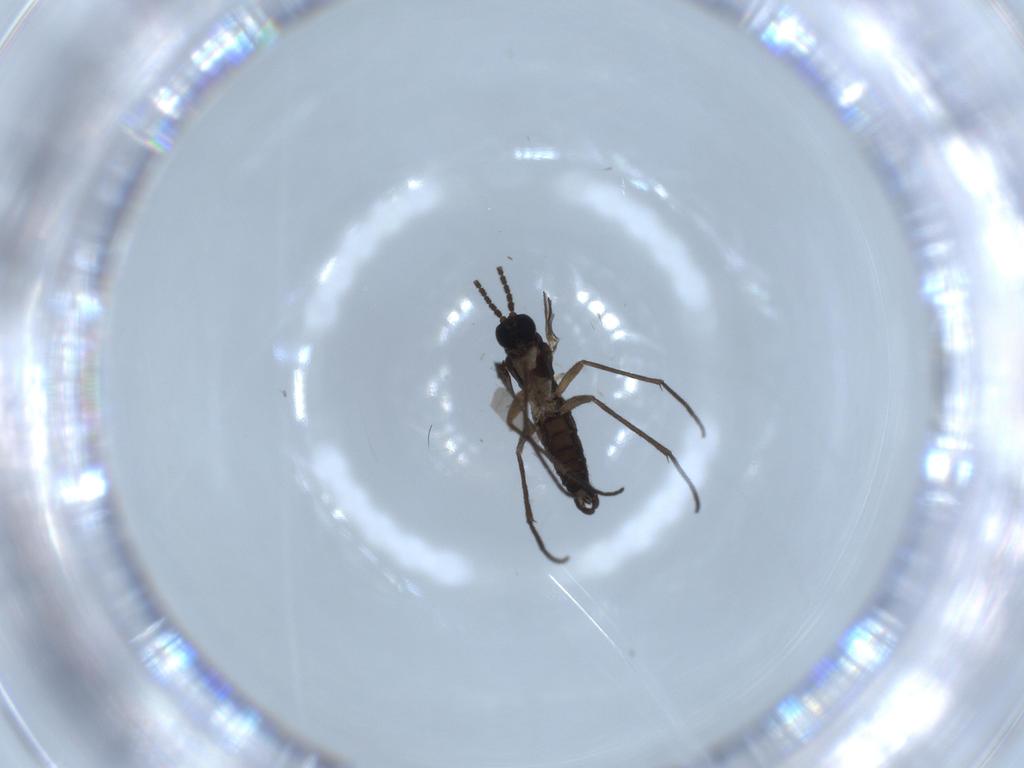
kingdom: Animalia
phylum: Arthropoda
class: Insecta
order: Diptera
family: Sciaridae
